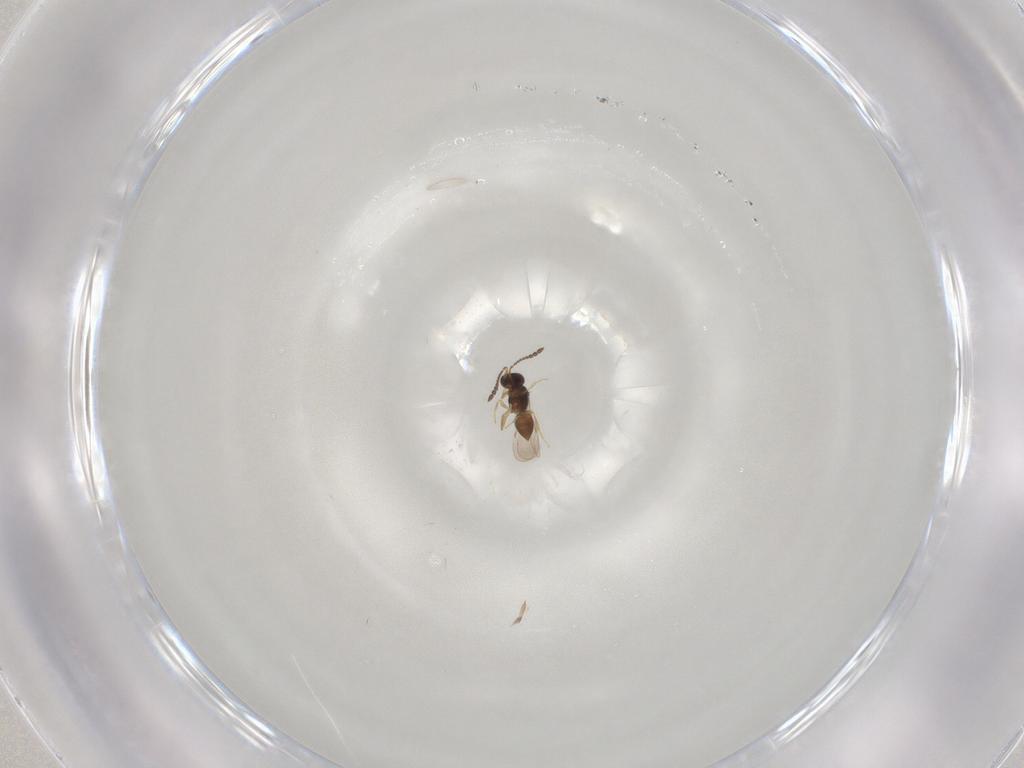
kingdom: Animalia
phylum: Arthropoda
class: Insecta
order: Hymenoptera
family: Ceraphronidae
